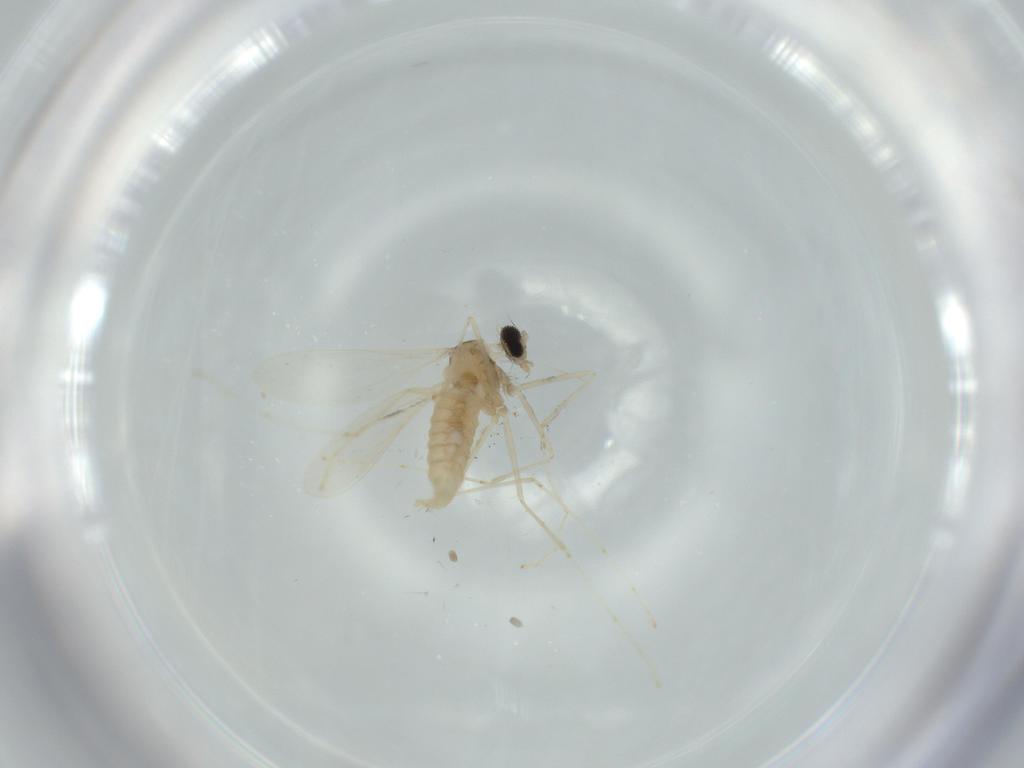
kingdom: Animalia
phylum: Arthropoda
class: Insecta
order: Diptera
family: Cecidomyiidae
